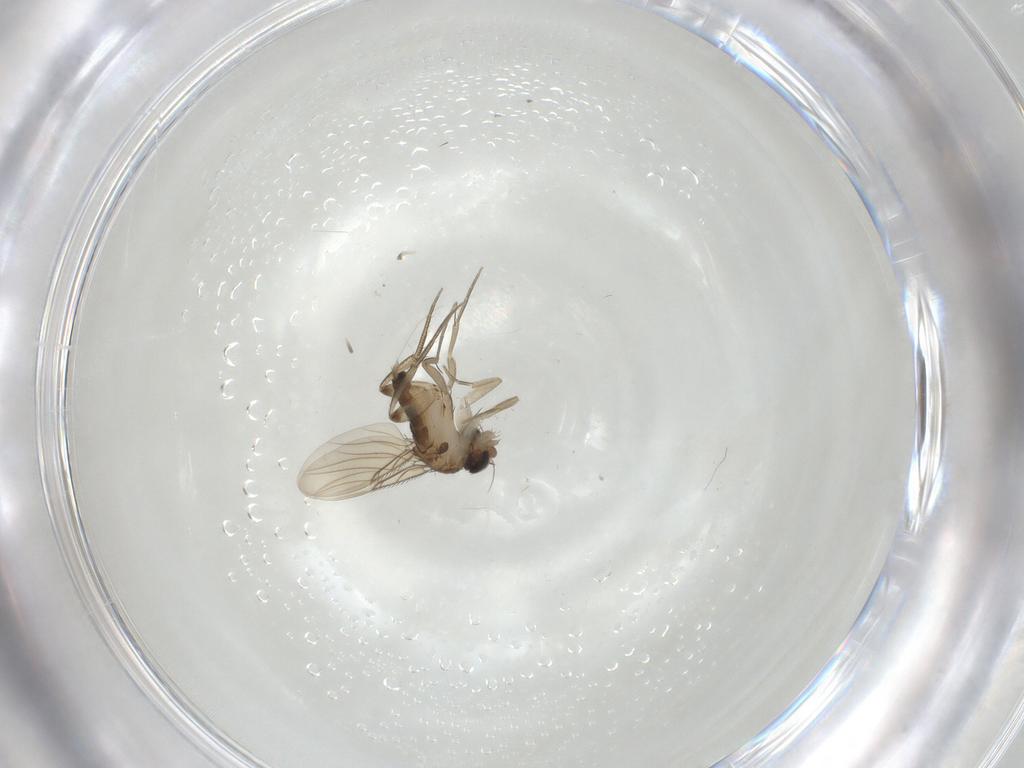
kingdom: Animalia
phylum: Arthropoda
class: Insecta
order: Diptera
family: Phoridae
